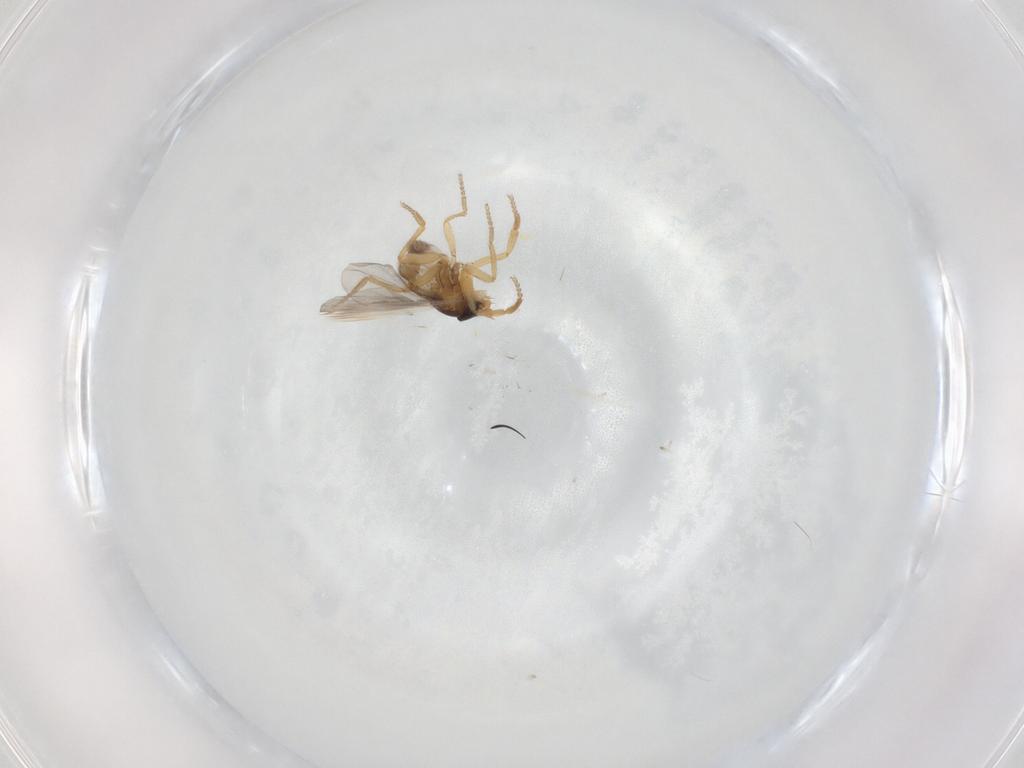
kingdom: Animalia
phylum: Arthropoda
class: Insecta
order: Diptera
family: Phoridae
